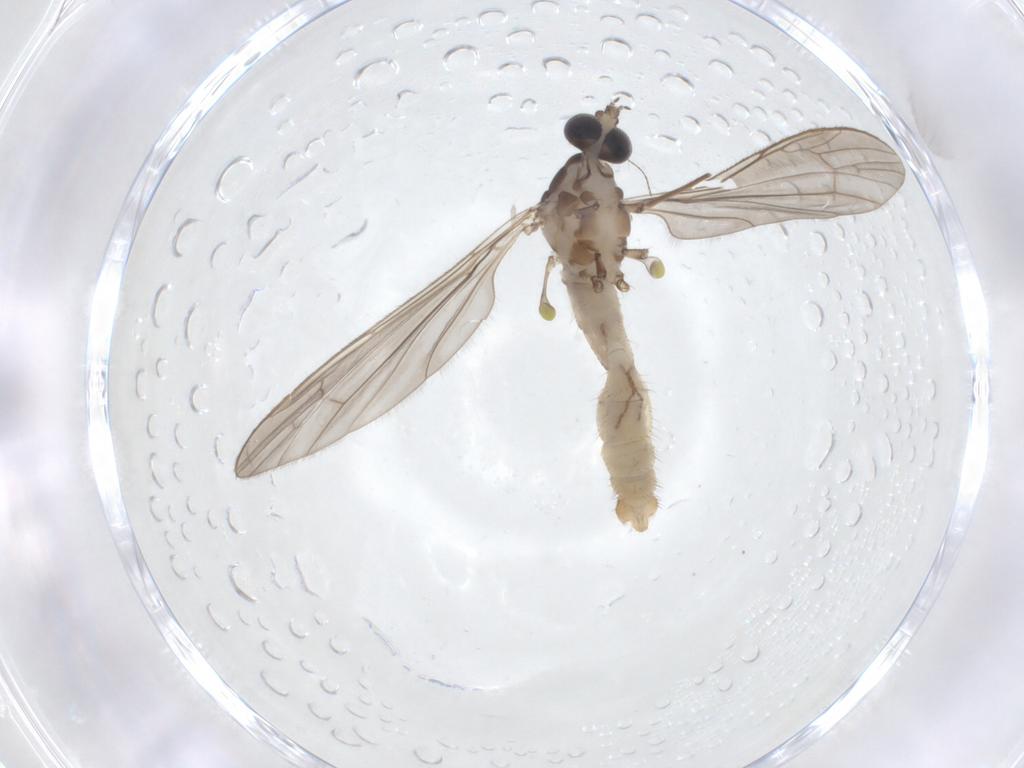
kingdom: Animalia
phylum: Arthropoda
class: Insecta
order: Diptera
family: Limoniidae
